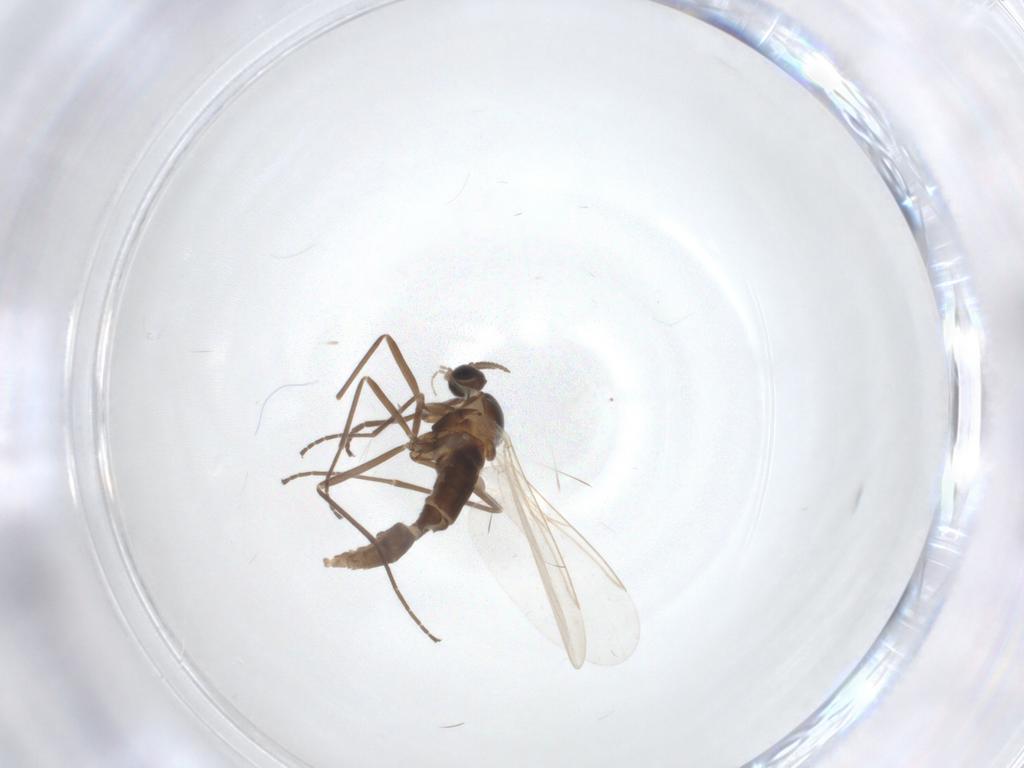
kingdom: Animalia
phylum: Arthropoda
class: Insecta
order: Diptera
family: Cecidomyiidae
